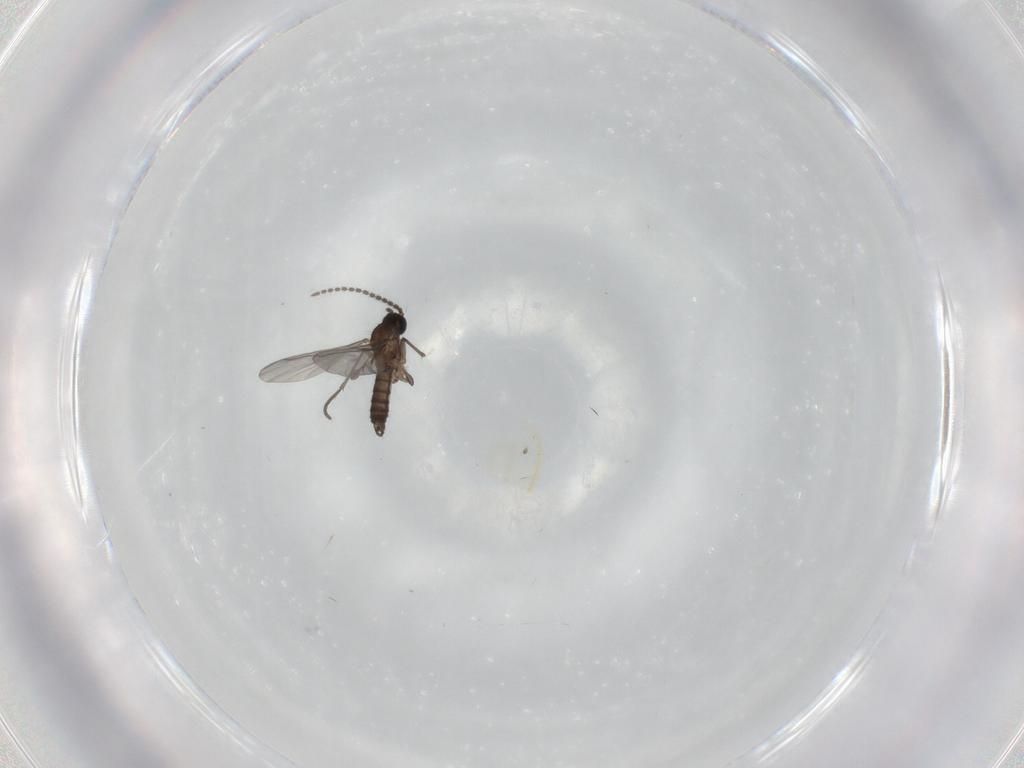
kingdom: Animalia
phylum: Arthropoda
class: Insecta
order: Diptera
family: Sciaridae
